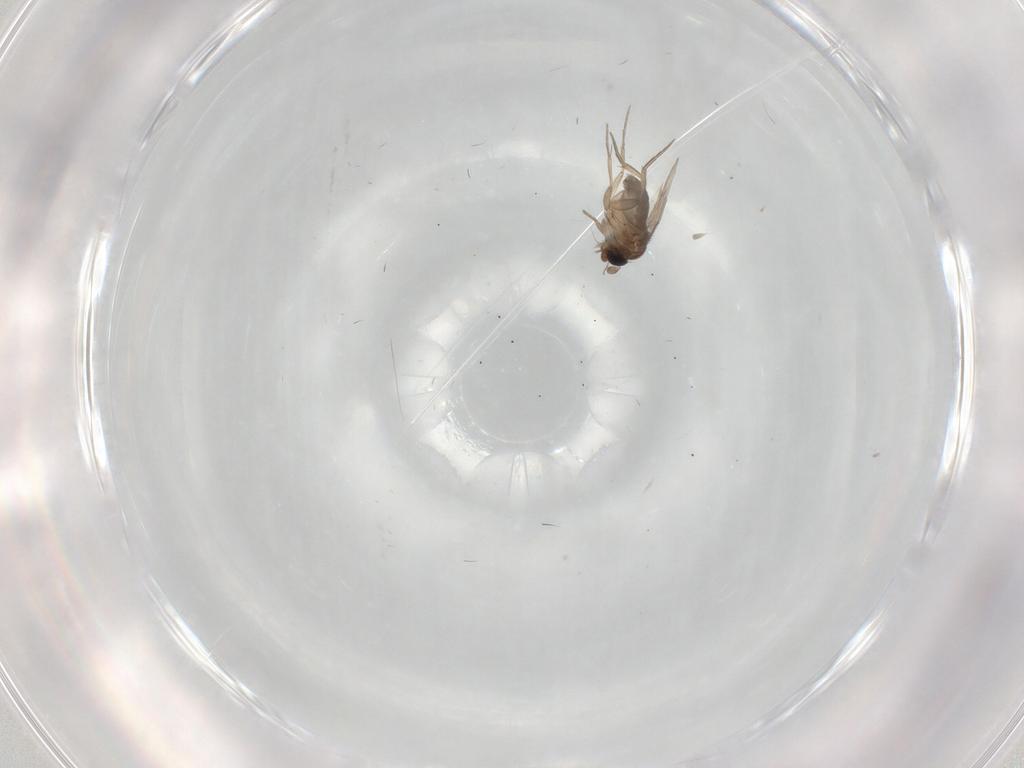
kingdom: Animalia
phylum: Arthropoda
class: Insecta
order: Diptera
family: Phoridae
